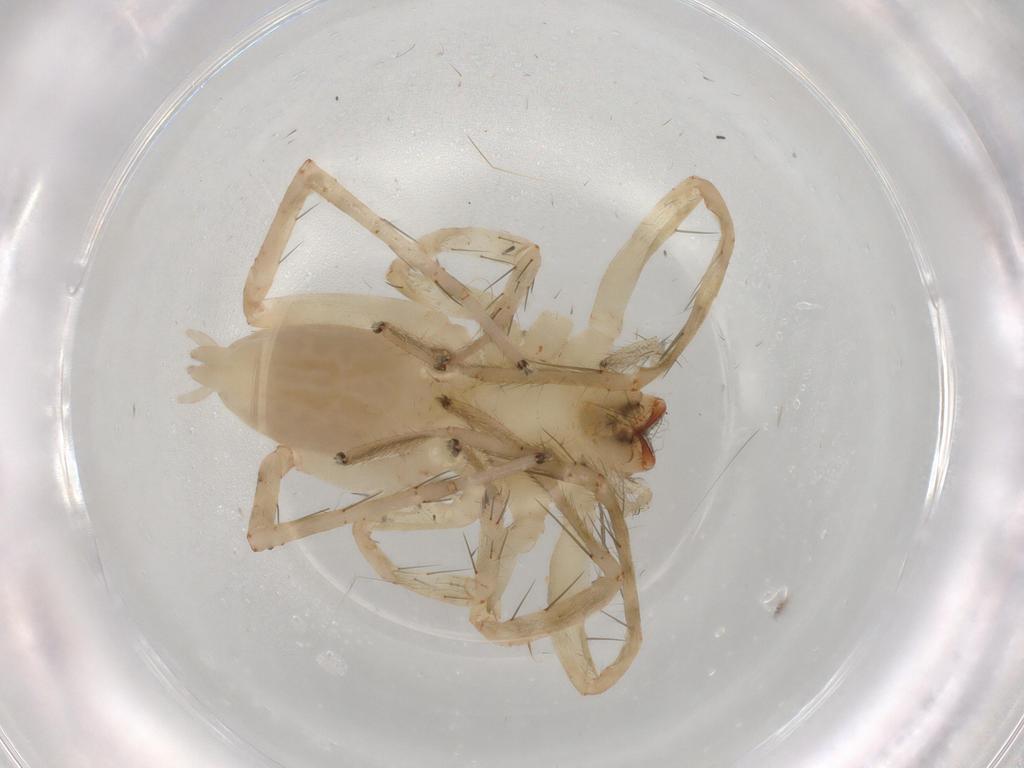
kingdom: Animalia
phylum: Arthropoda
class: Arachnida
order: Araneae
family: Anyphaenidae
